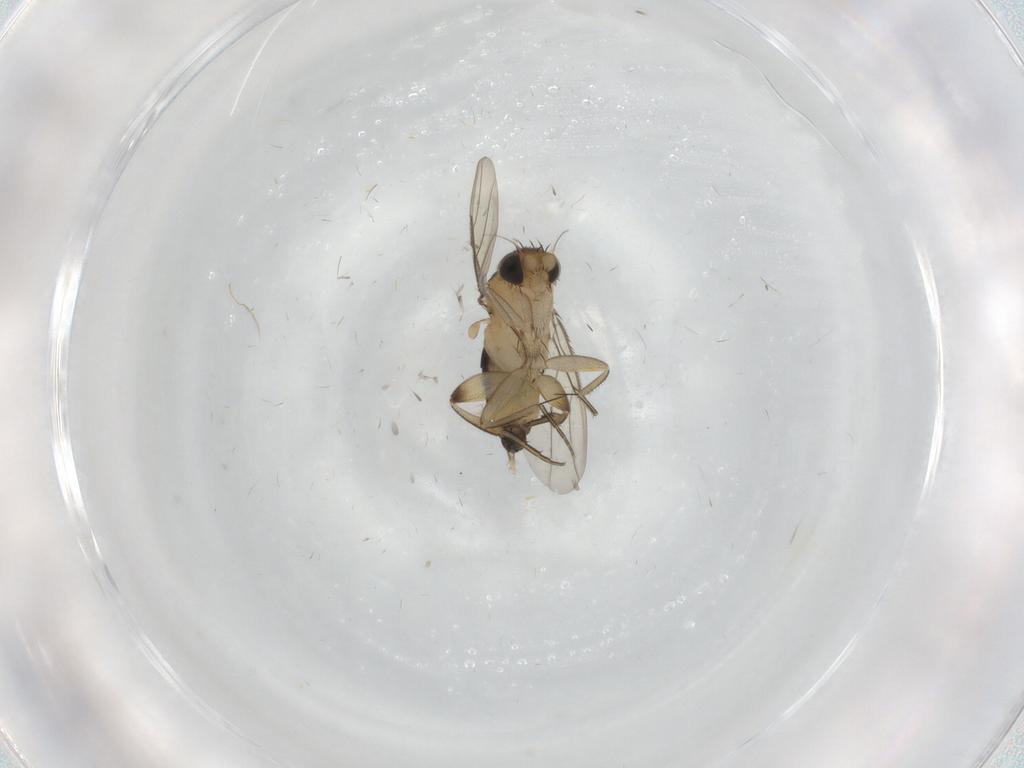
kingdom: Animalia
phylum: Arthropoda
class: Insecta
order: Diptera
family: Phoridae
